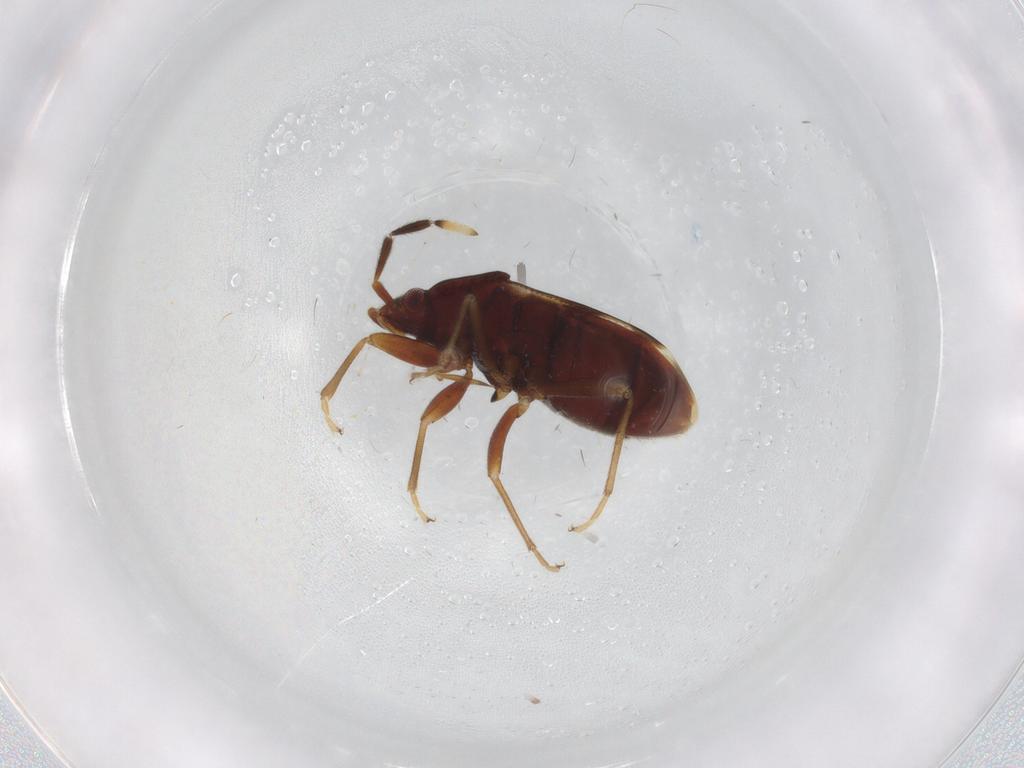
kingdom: Animalia
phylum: Arthropoda
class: Insecta
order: Hemiptera
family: Rhyparochromidae
